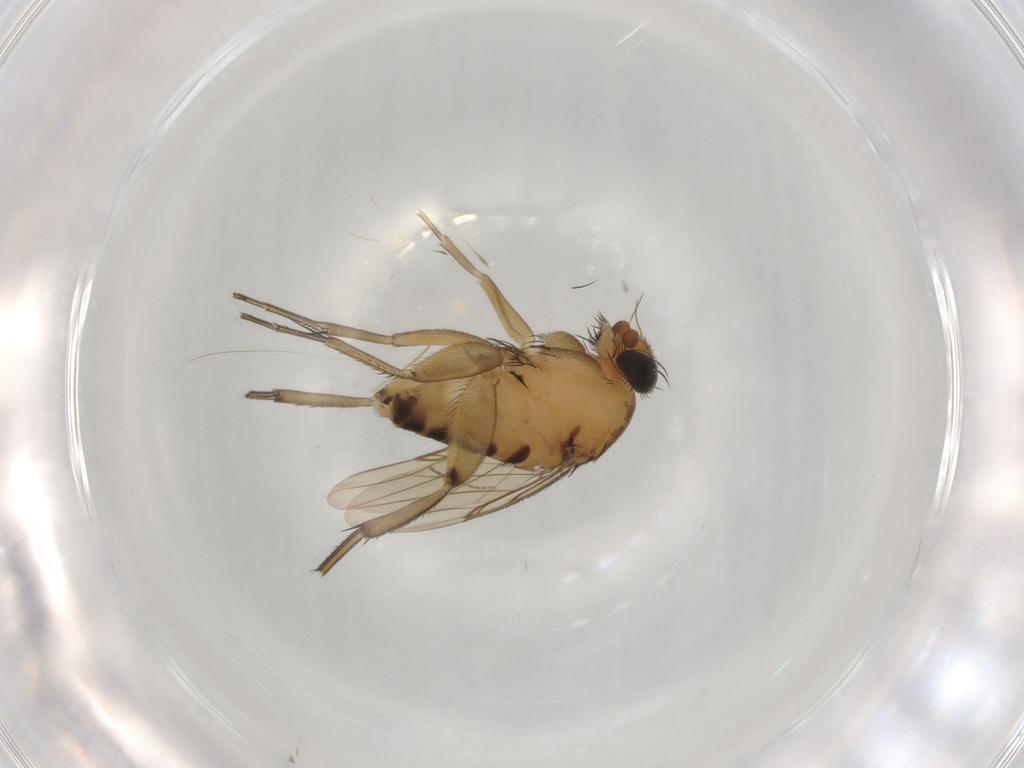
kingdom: Animalia
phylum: Arthropoda
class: Insecta
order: Diptera
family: Phoridae
